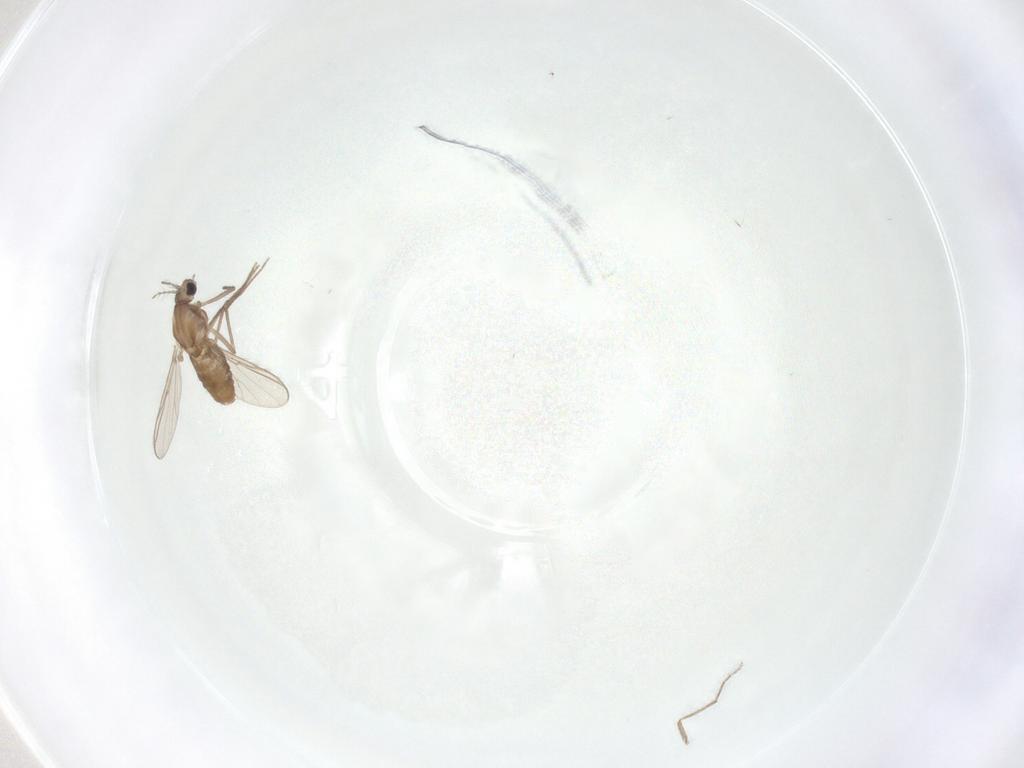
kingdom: Animalia
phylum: Arthropoda
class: Insecta
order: Diptera
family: Chironomidae
